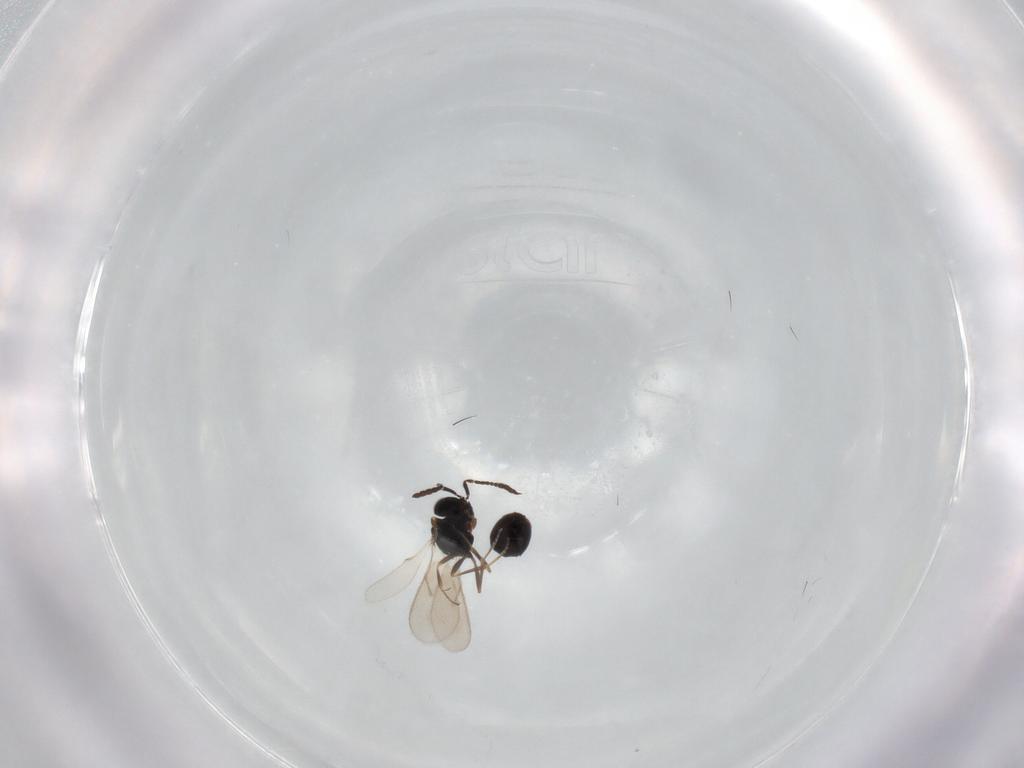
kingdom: Animalia
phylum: Arthropoda
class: Insecta
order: Hymenoptera
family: Scelionidae
